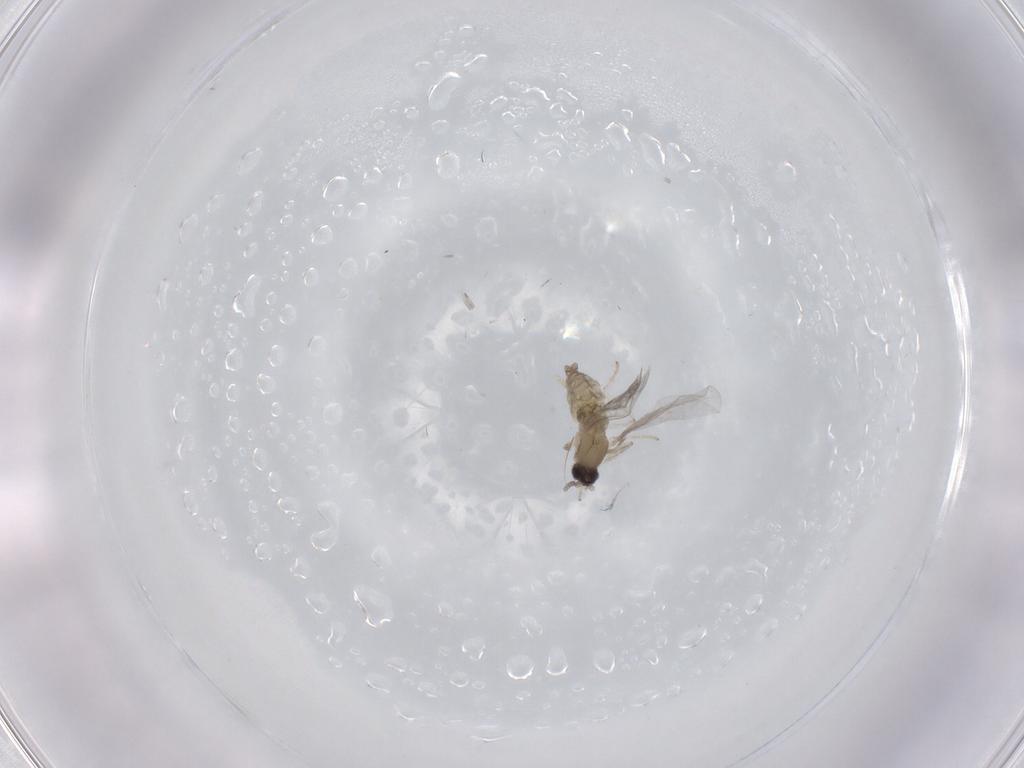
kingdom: Animalia
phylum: Arthropoda
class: Insecta
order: Diptera
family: Cecidomyiidae
